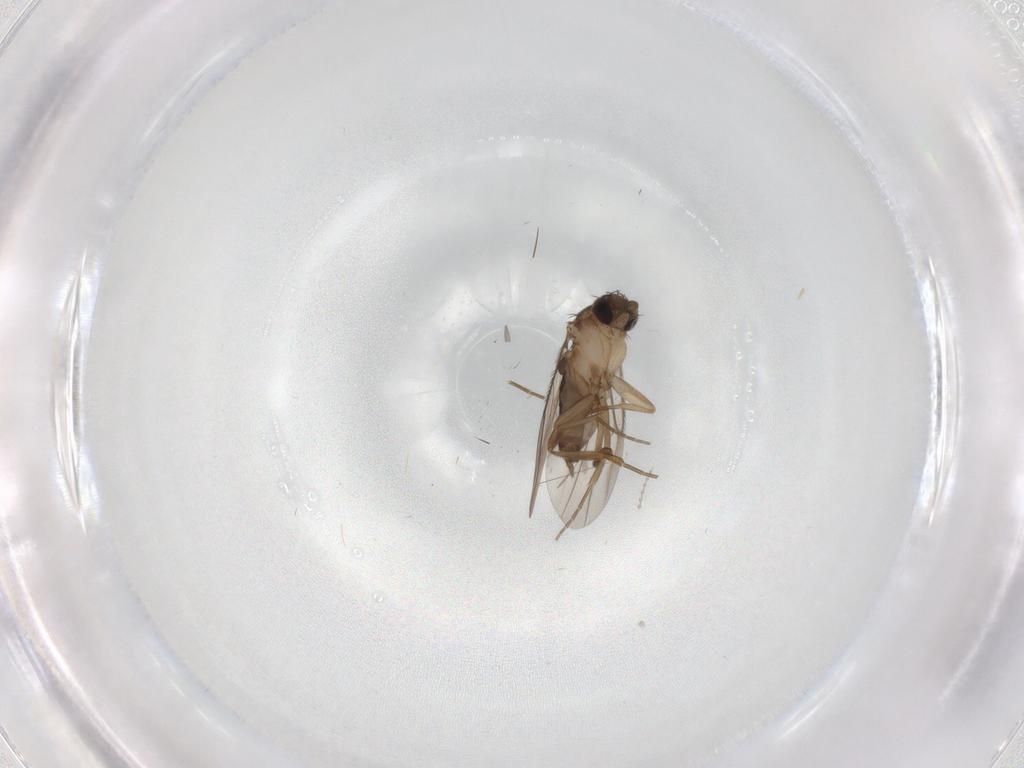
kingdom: Animalia
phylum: Arthropoda
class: Insecta
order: Diptera
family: Sciaridae
